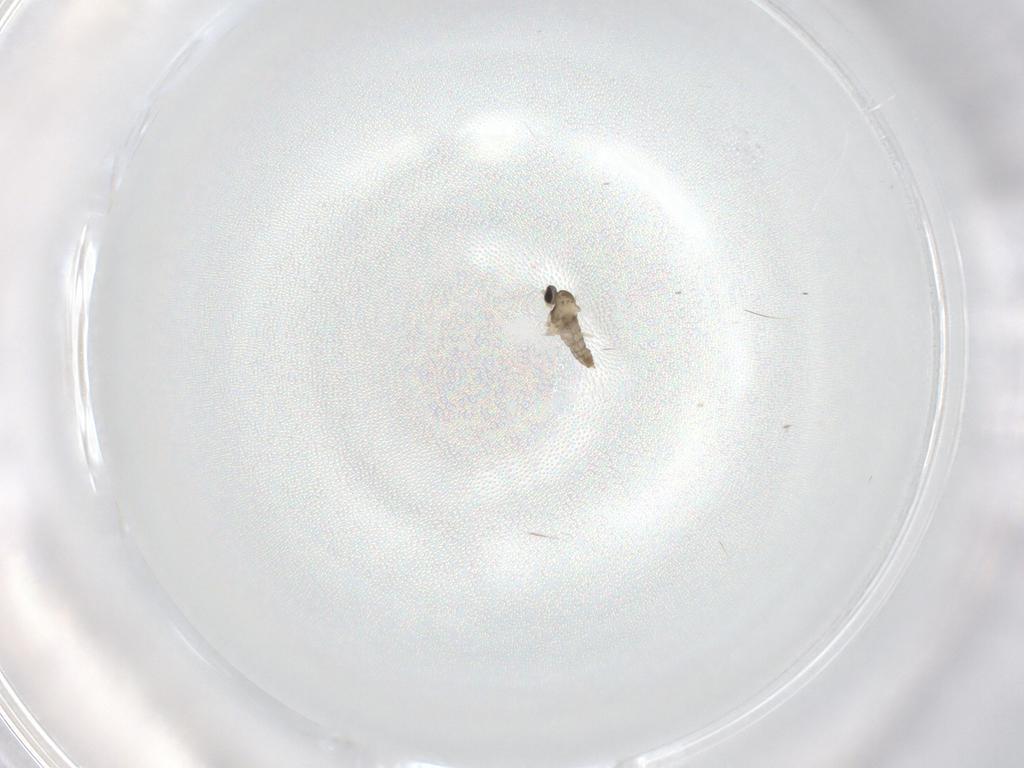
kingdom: Animalia
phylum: Arthropoda
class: Insecta
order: Diptera
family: Cecidomyiidae
